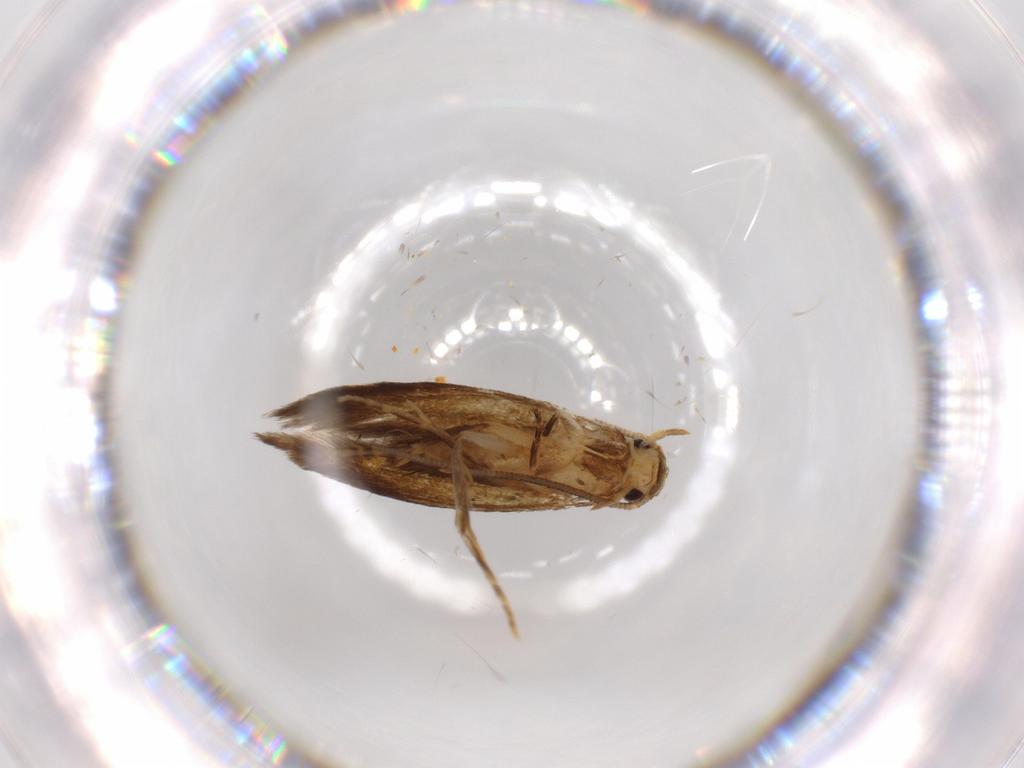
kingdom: Animalia
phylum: Arthropoda
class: Insecta
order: Lepidoptera
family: Tineidae
